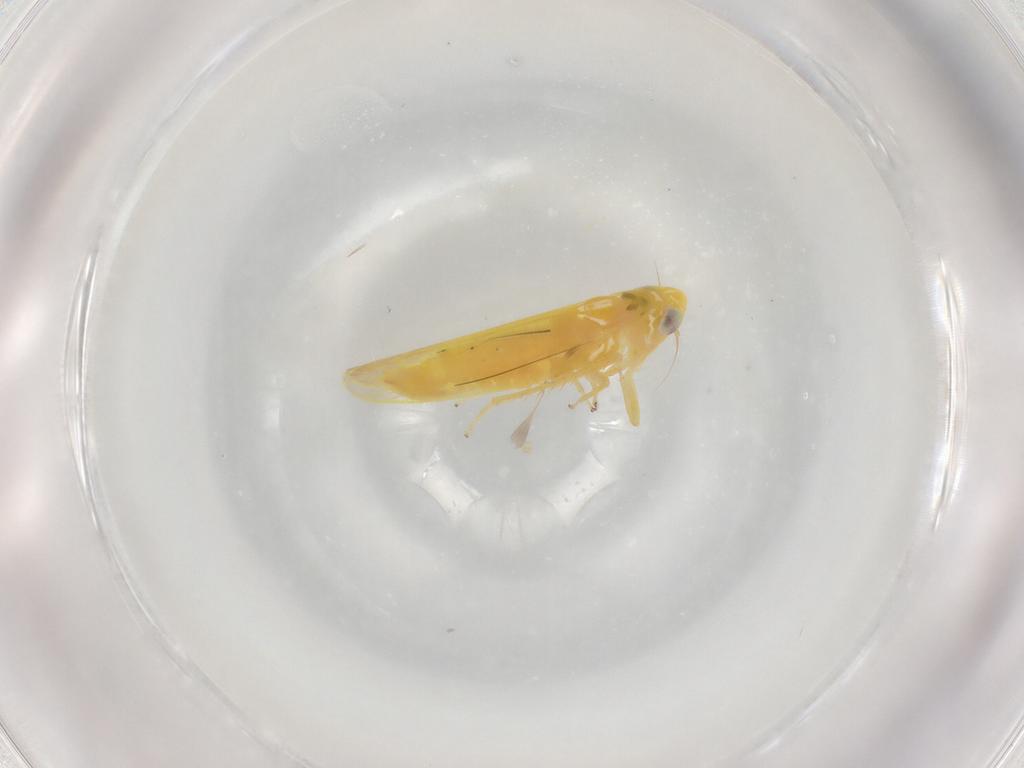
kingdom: Animalia
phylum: Arthropoda
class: Insecta
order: Hemiptera
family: Cicadellidae
